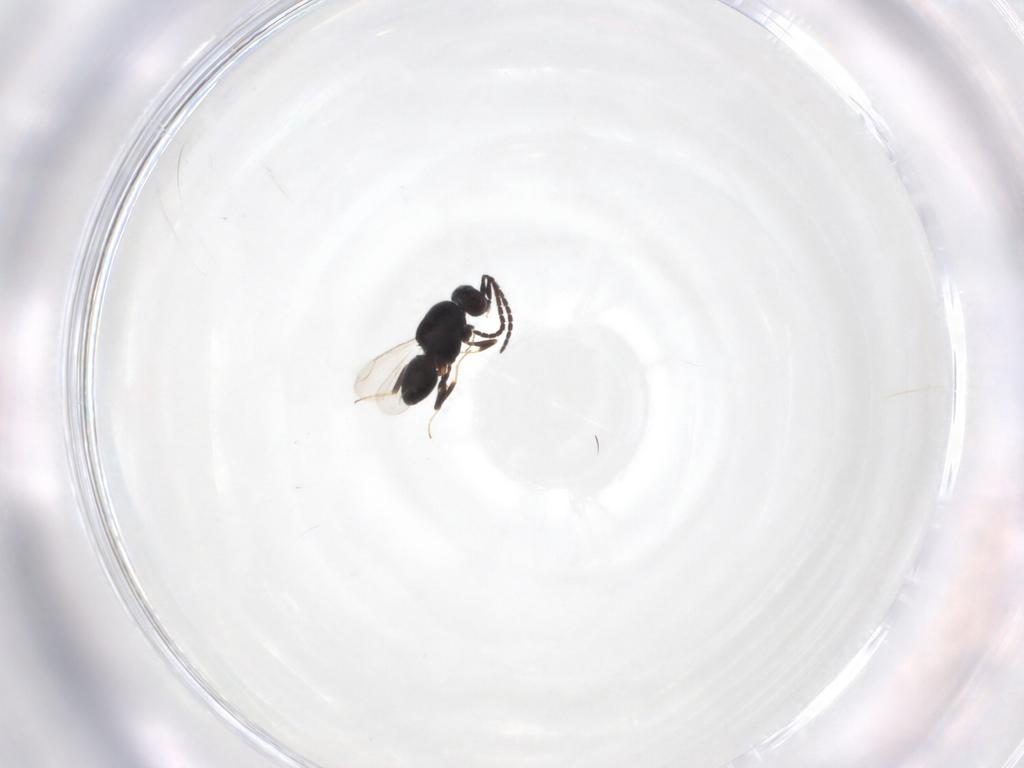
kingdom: Animalia
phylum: Arthropoda
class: Insecta
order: Hymenoptera
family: Ceraphronidae
